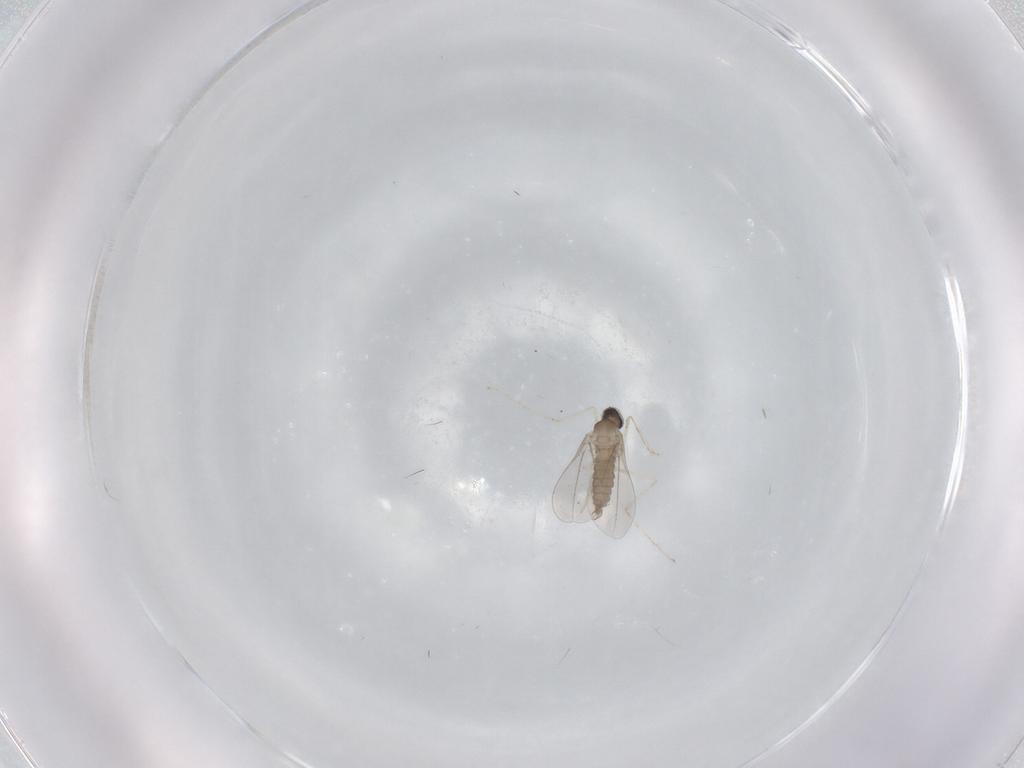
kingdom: Animalia
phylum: Arthropoda
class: Insecta
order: Diptera
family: Cecidomyiidae
